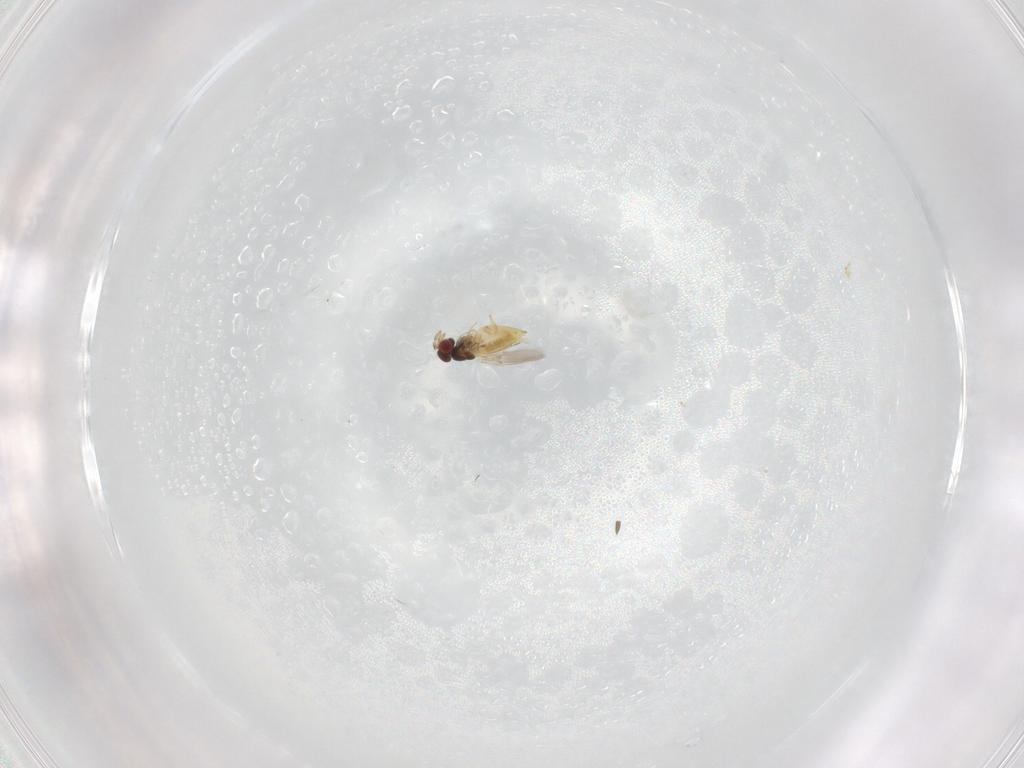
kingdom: Animalia
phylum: Arthropoda
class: Insecta
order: Hymenoptera
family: Trichogrammatidae
